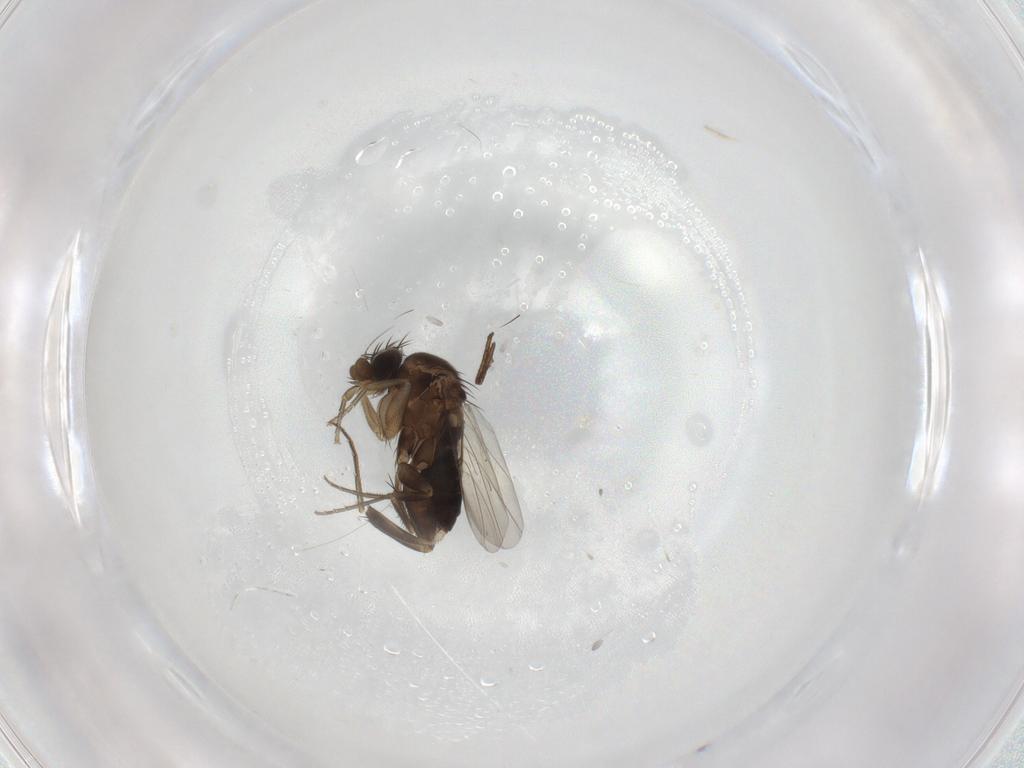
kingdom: Animalia
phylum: Arthropoda
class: Insecta
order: Diptera
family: Phoridae
